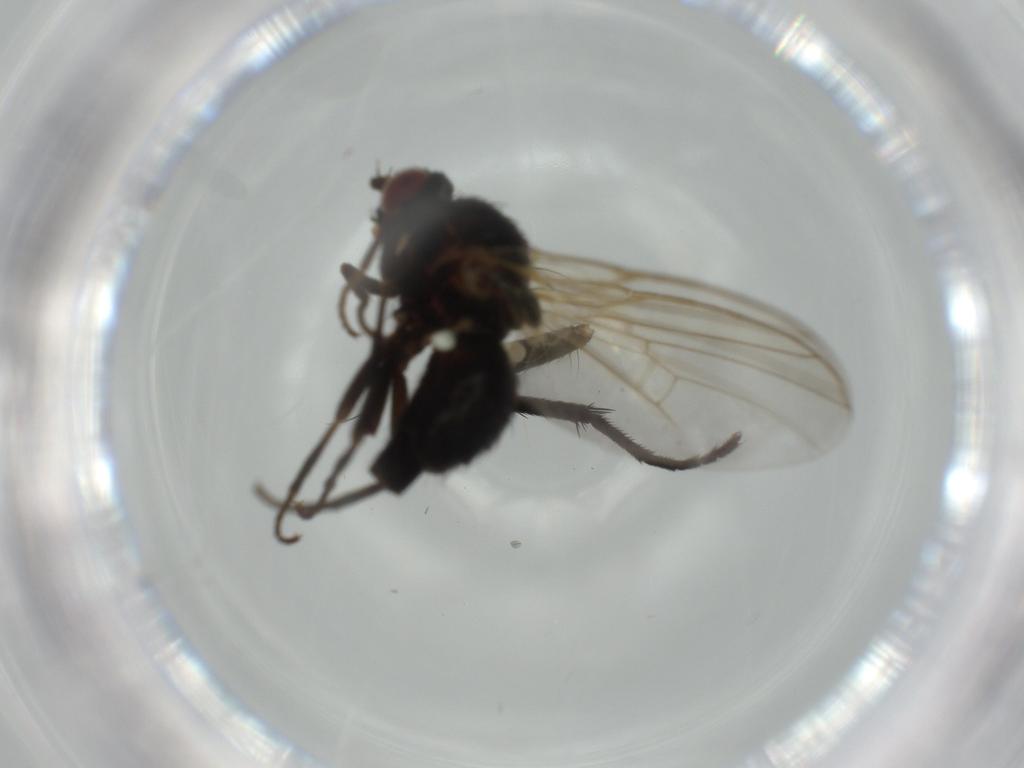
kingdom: Animalia
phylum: Arthropoda
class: Insecta
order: Diptera
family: Agromyzidae
